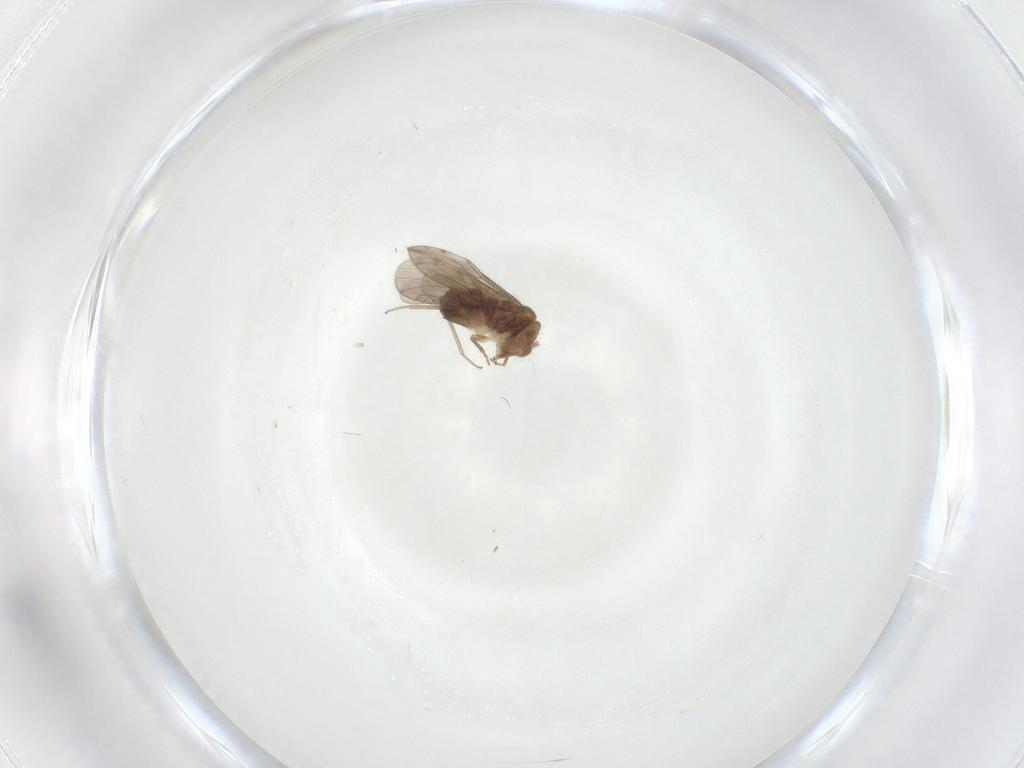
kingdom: Animalia
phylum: Arthropoda
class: Insecta
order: Psocodea
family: Ectopsocidae
